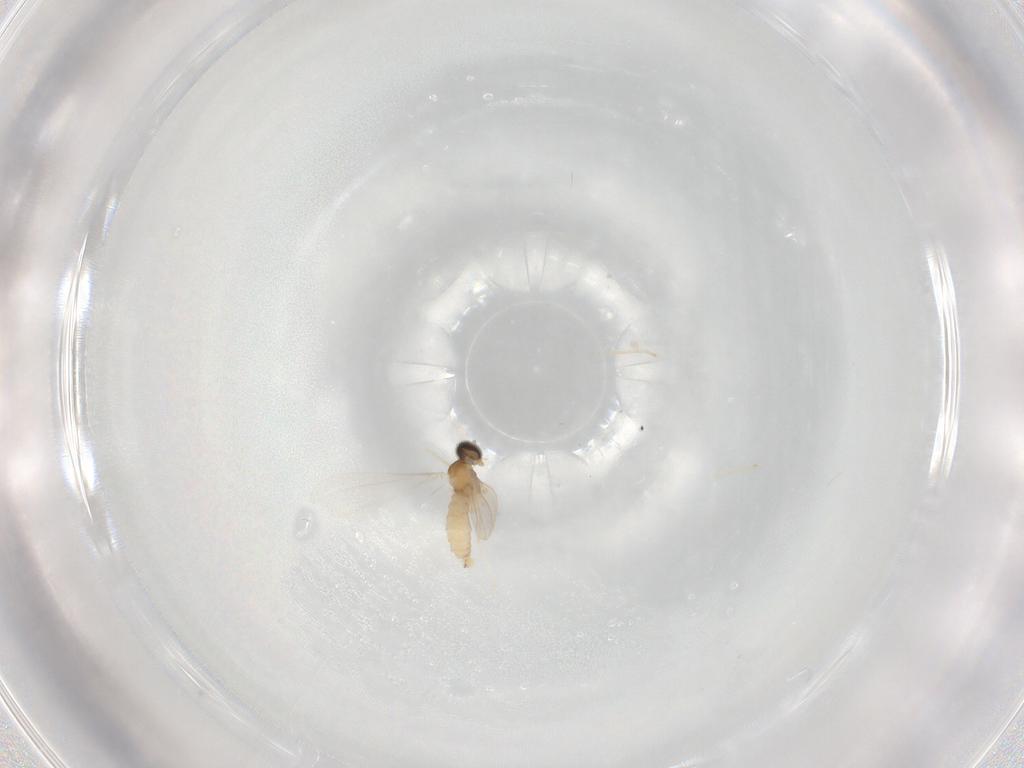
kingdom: Animalia
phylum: Arthropoda
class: Insecta
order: Diptera
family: Cecidomyiidae
